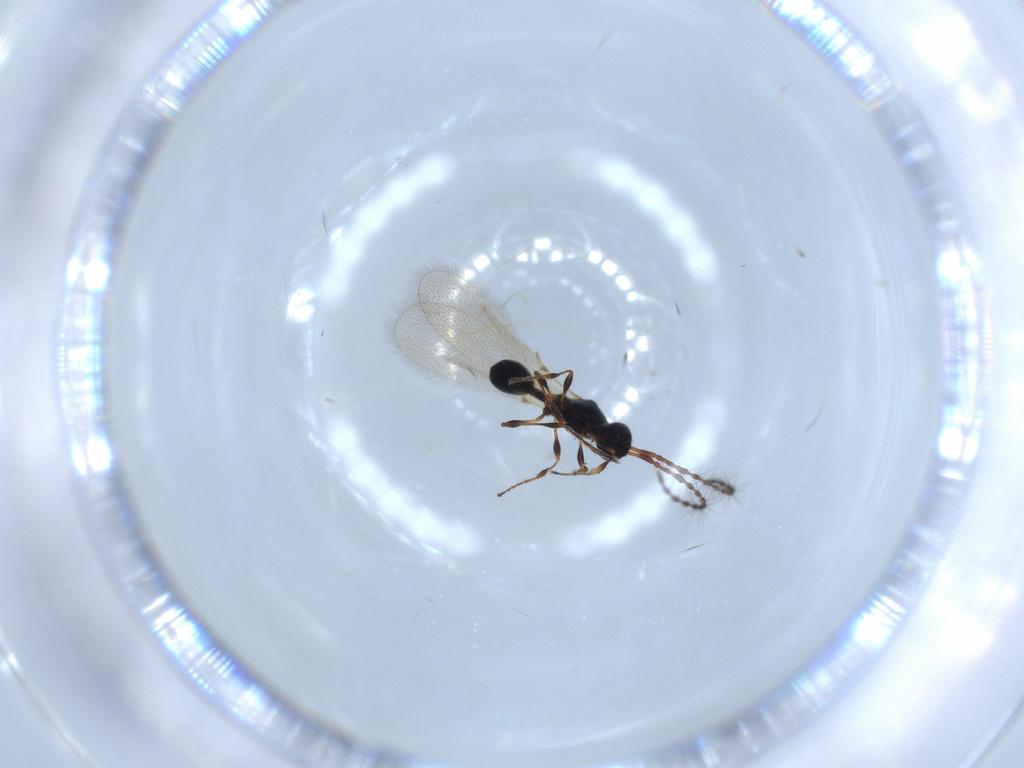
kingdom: Animalia
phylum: Arthropoda
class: Insecta
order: Hymenoptera
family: Diapriidae
